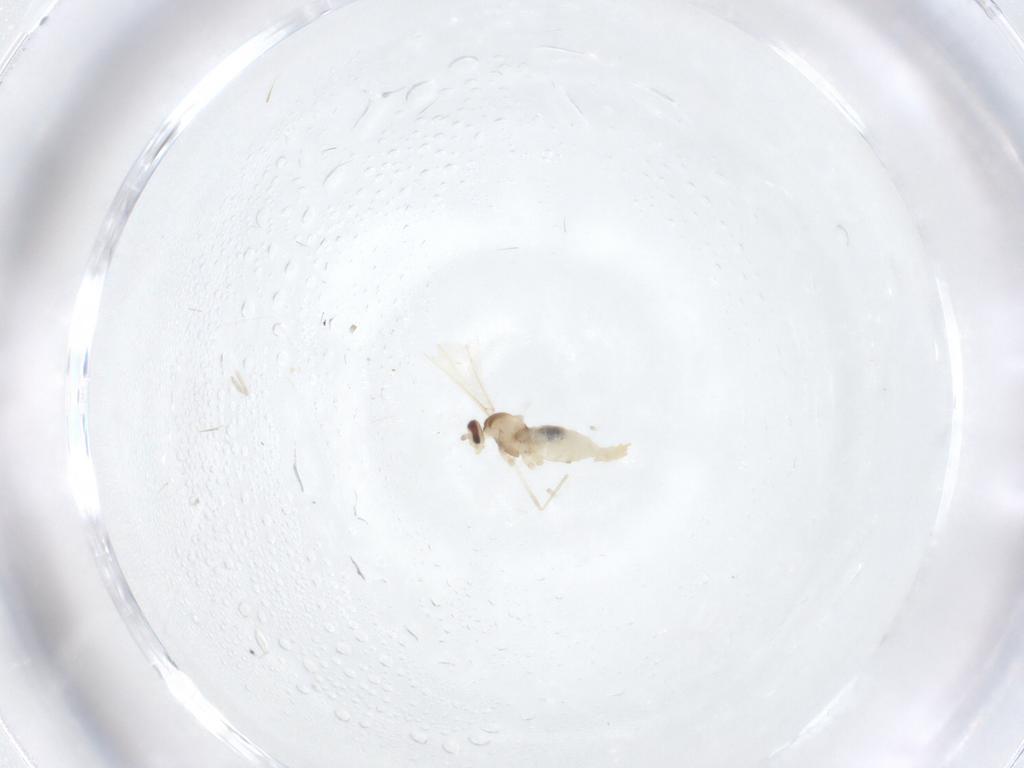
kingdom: Animalia
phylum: Arthropoda
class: Insecta
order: Diptera
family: Cecidomyiidae
